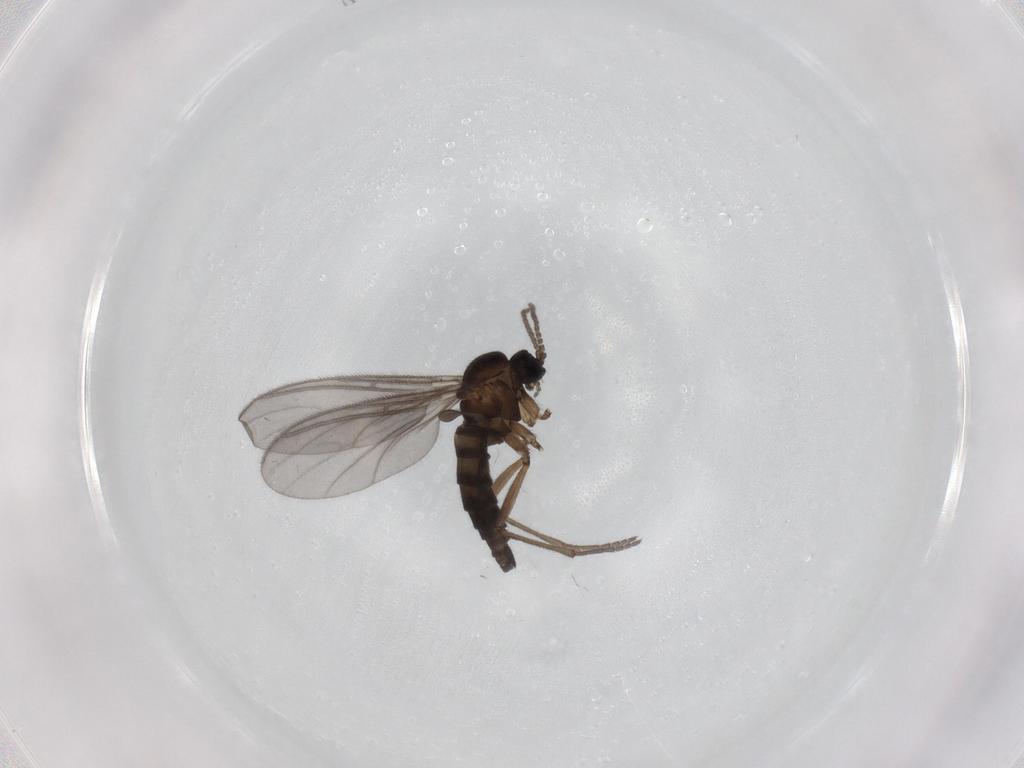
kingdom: Animalia
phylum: Arthropoda
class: Insecta
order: Diptera
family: Sciaridae
